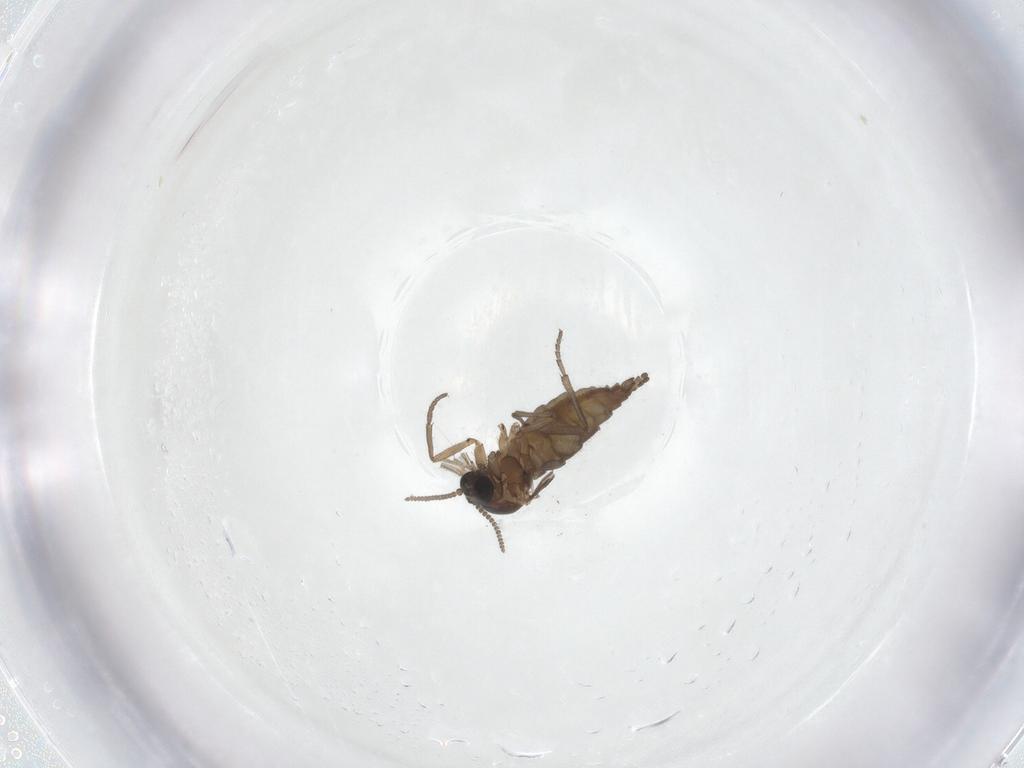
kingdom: Animalia
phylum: Arthropoda
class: Insecta
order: Diptera
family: Sciaridae
